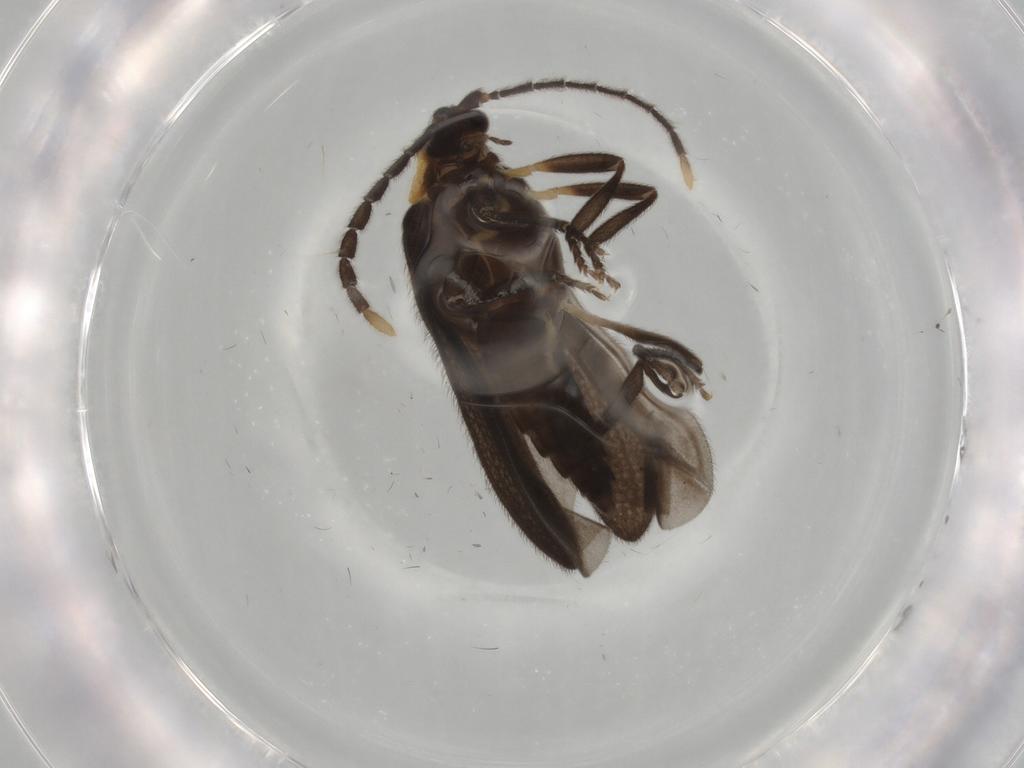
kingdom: Animalia
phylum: Arthropoda
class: Insecta
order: Coleoptera
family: Lycidae
